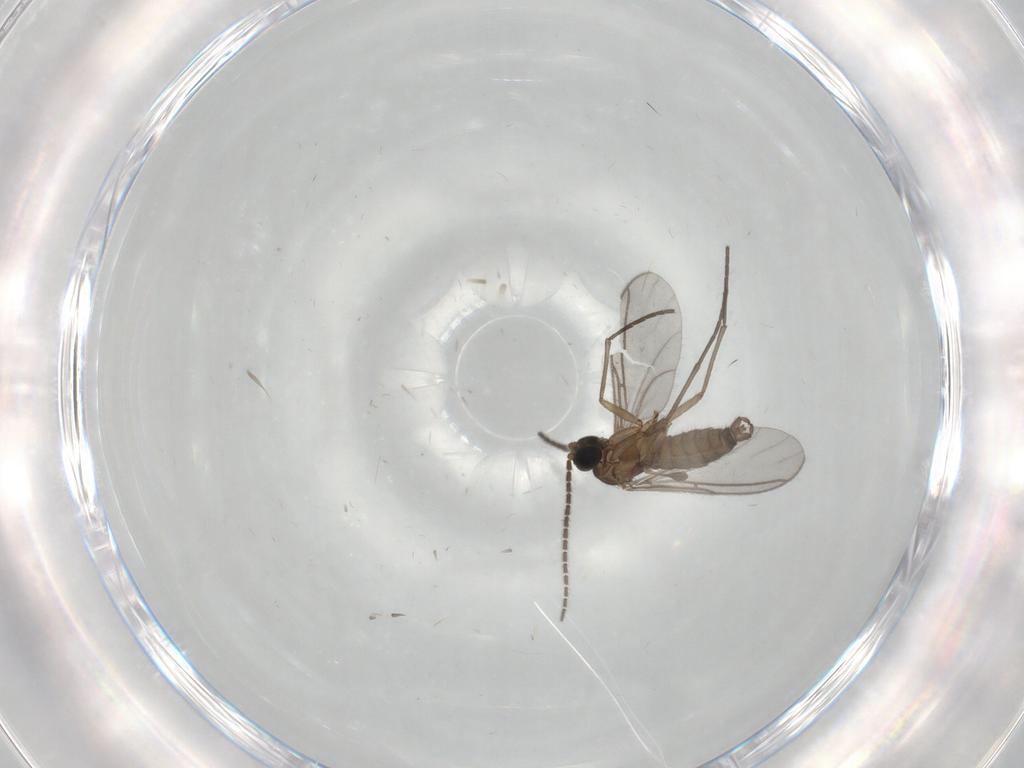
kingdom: Animalia
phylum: Arthropoda
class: Insecta
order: Diptera
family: Sciaridae
